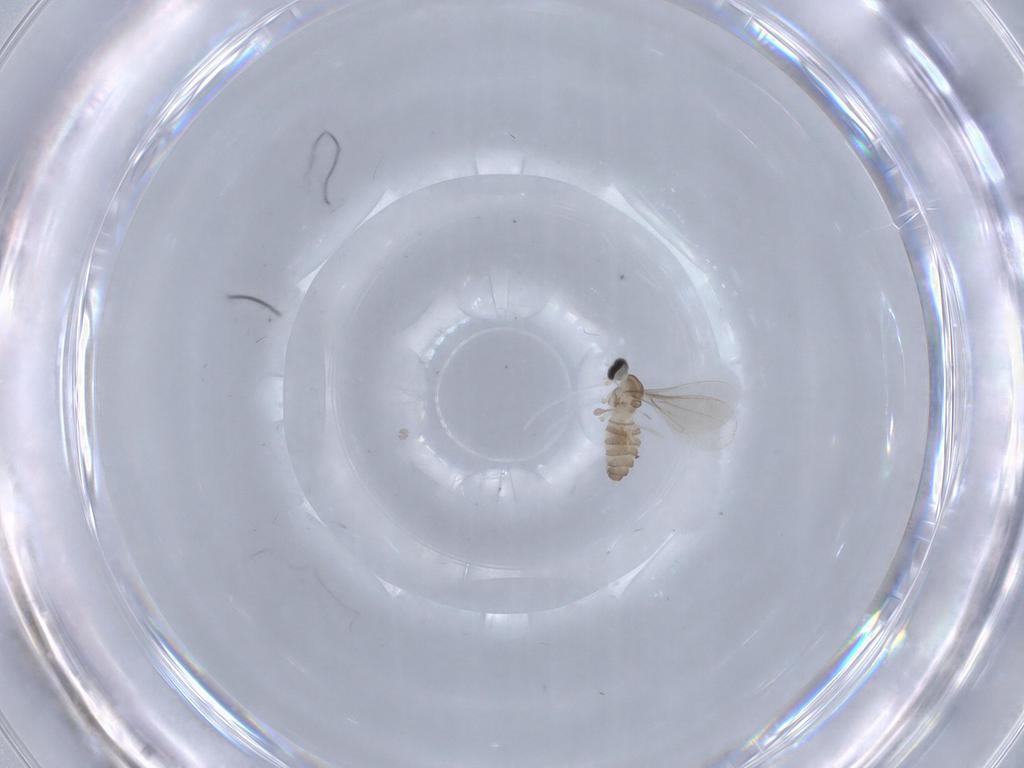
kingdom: Animalia
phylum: Arthropoda
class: Insecta
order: Diptera
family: Cecidomyiidae
